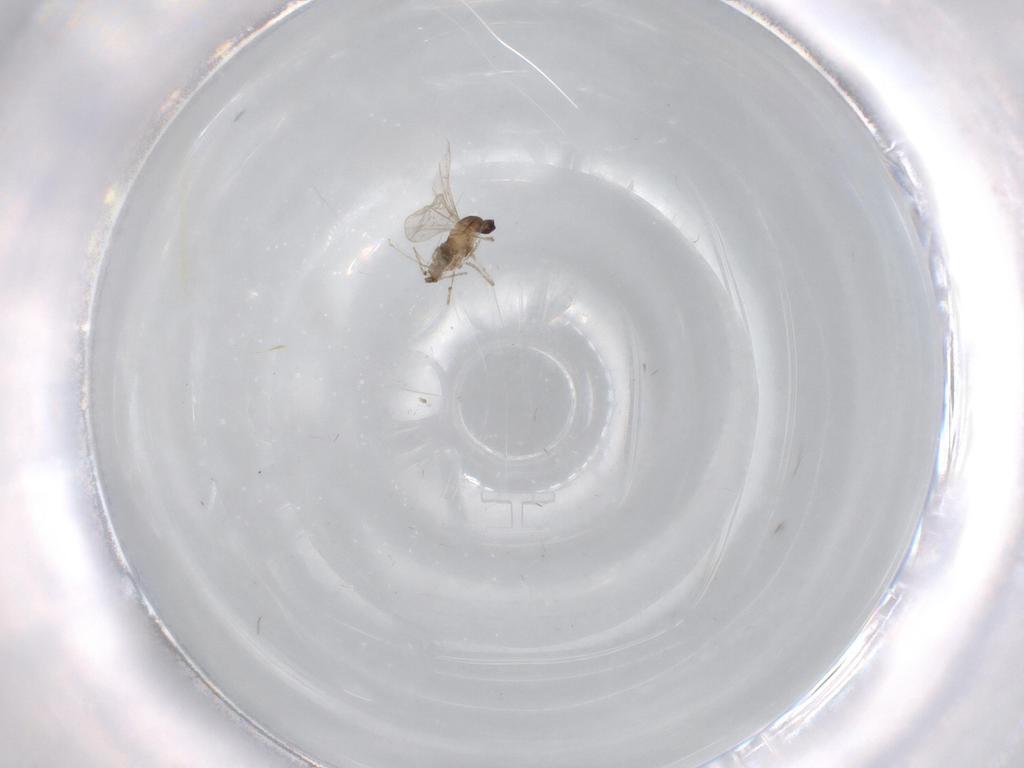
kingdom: Animalia
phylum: Arthropoda
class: Insecta
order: Diptera
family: Cecidomyiidae
